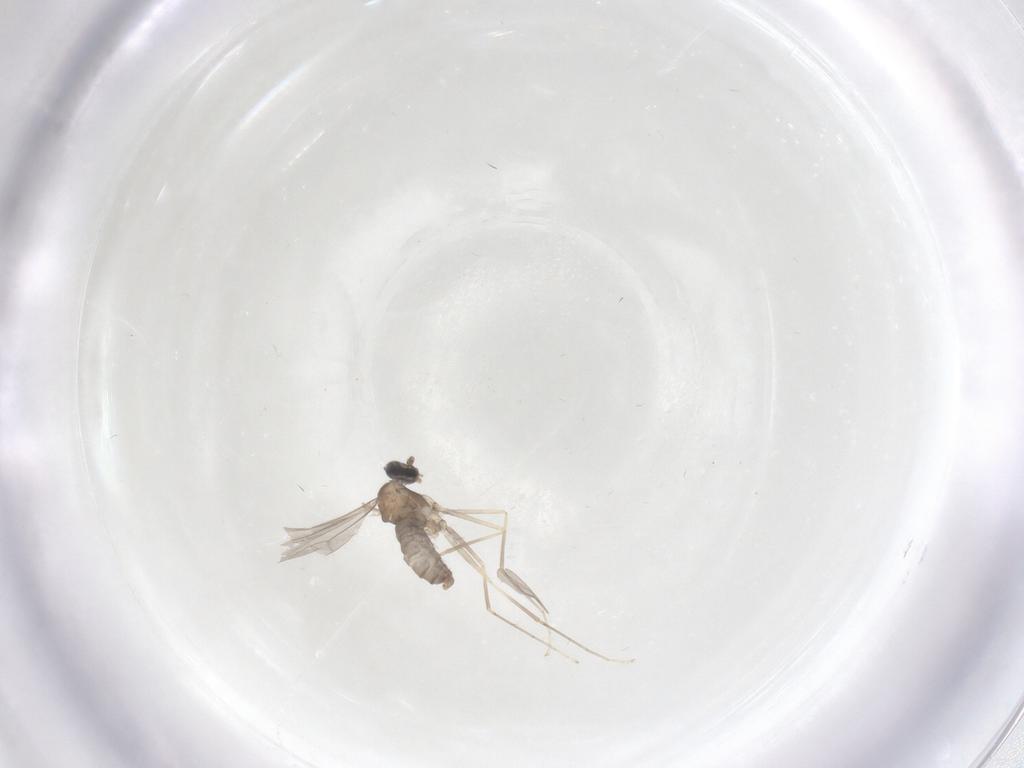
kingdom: Animalia
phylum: Arthropoda
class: Insecta
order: Diptera
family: Cecidomyiidae
